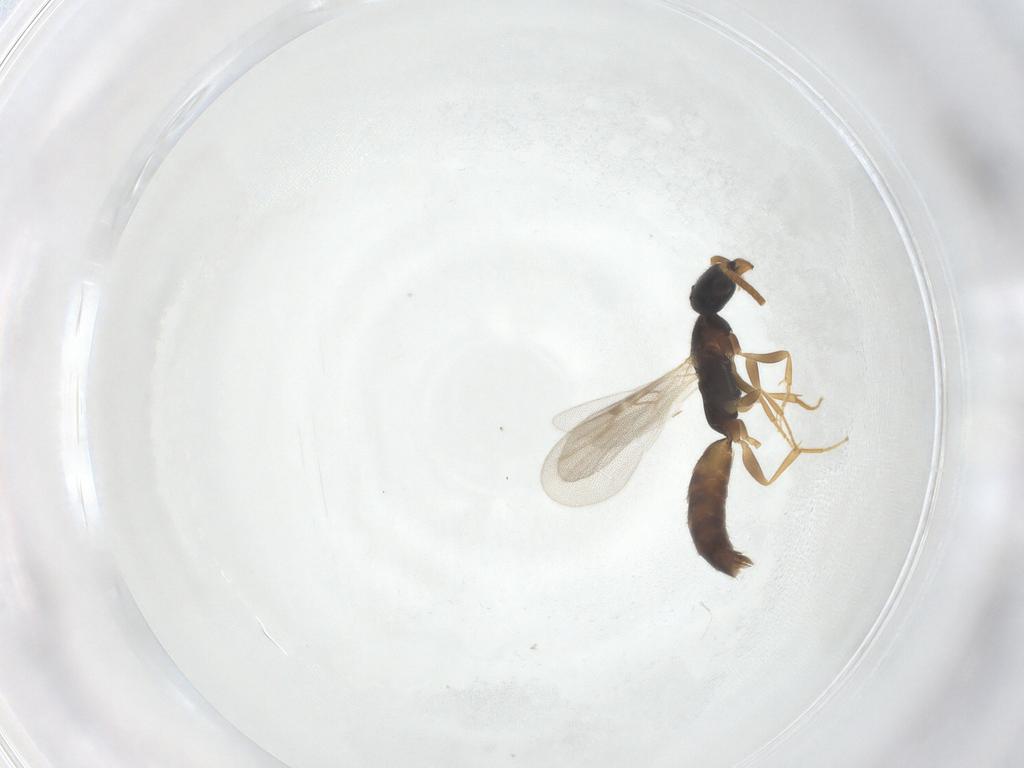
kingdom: Animalia
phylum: Arthropoda
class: Insecta
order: Hymenoptera
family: Bethylidae
